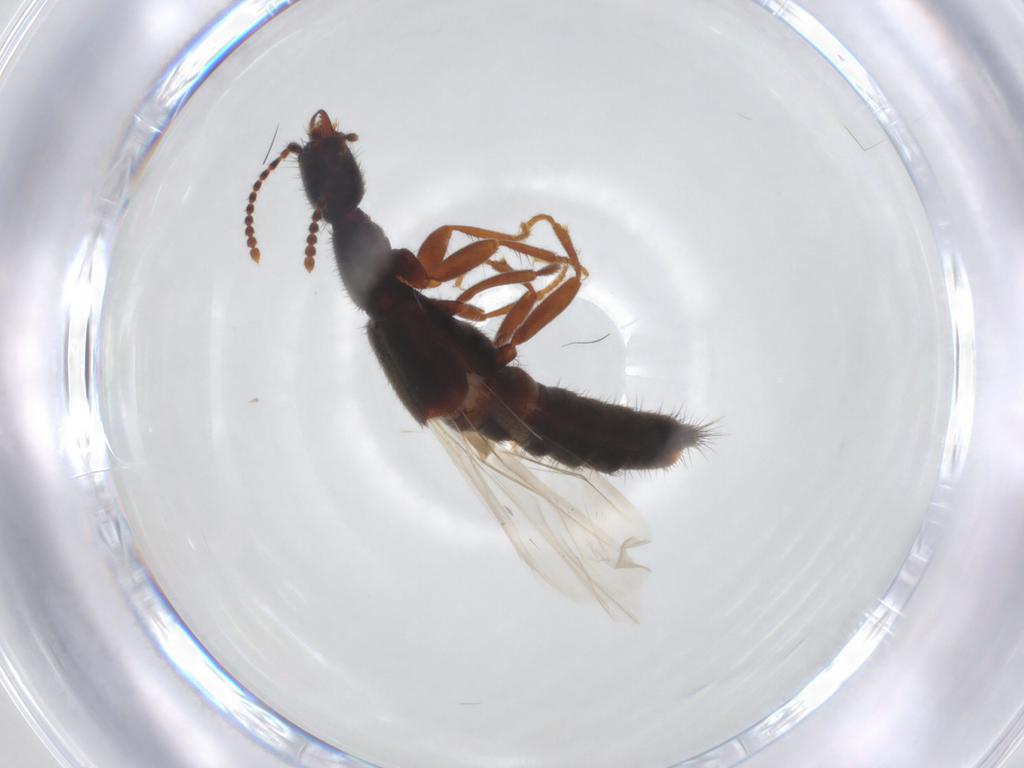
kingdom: Animalia
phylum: Arthropoda
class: Insecta
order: Coleoptera
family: Staphylinidae
